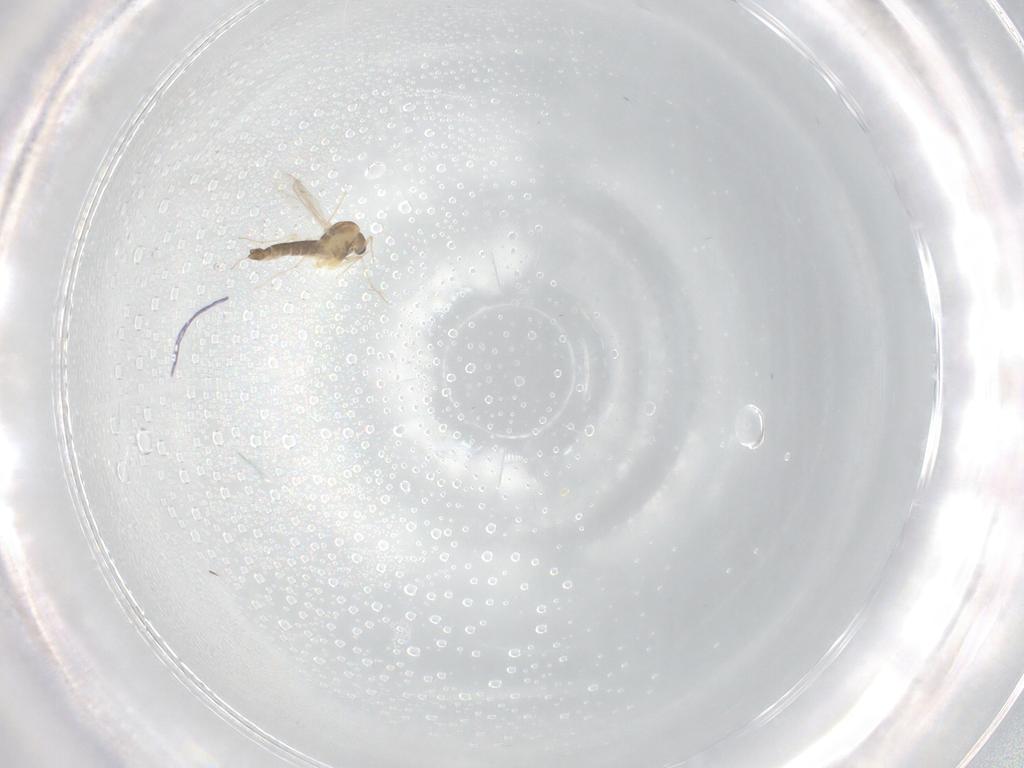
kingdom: Animalia
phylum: Arthropoda
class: Insecta
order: Diptera
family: Chironomidae
